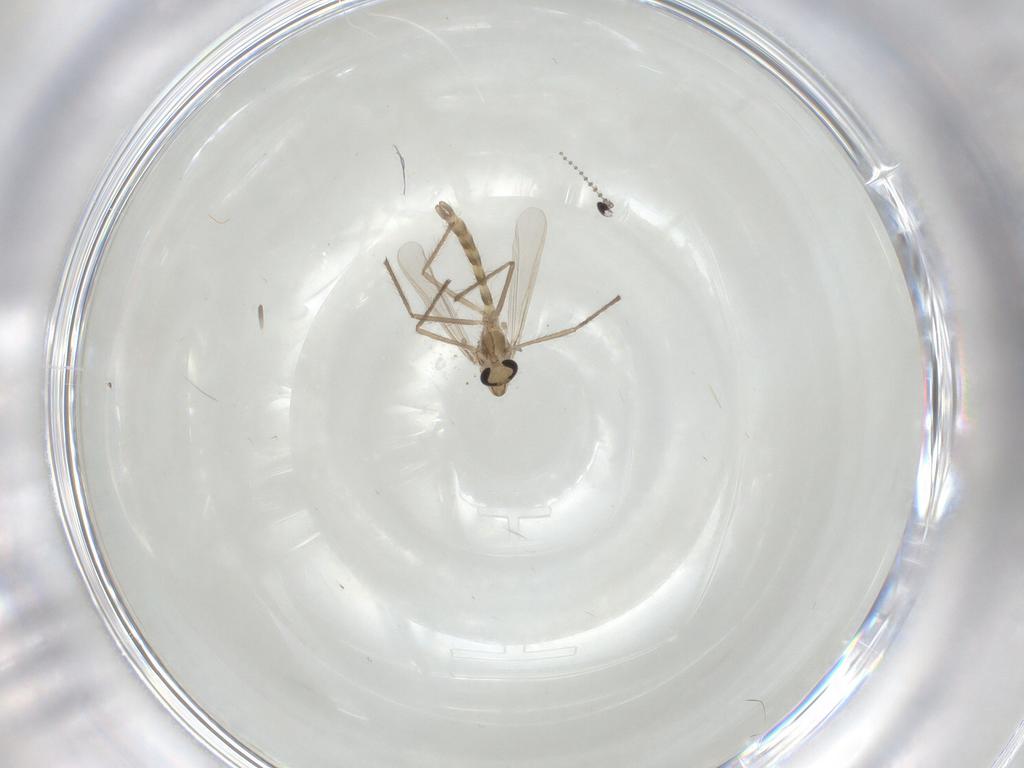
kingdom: Animalia
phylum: Arthropoda
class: Insecta
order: Diptera
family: Chironomidae
